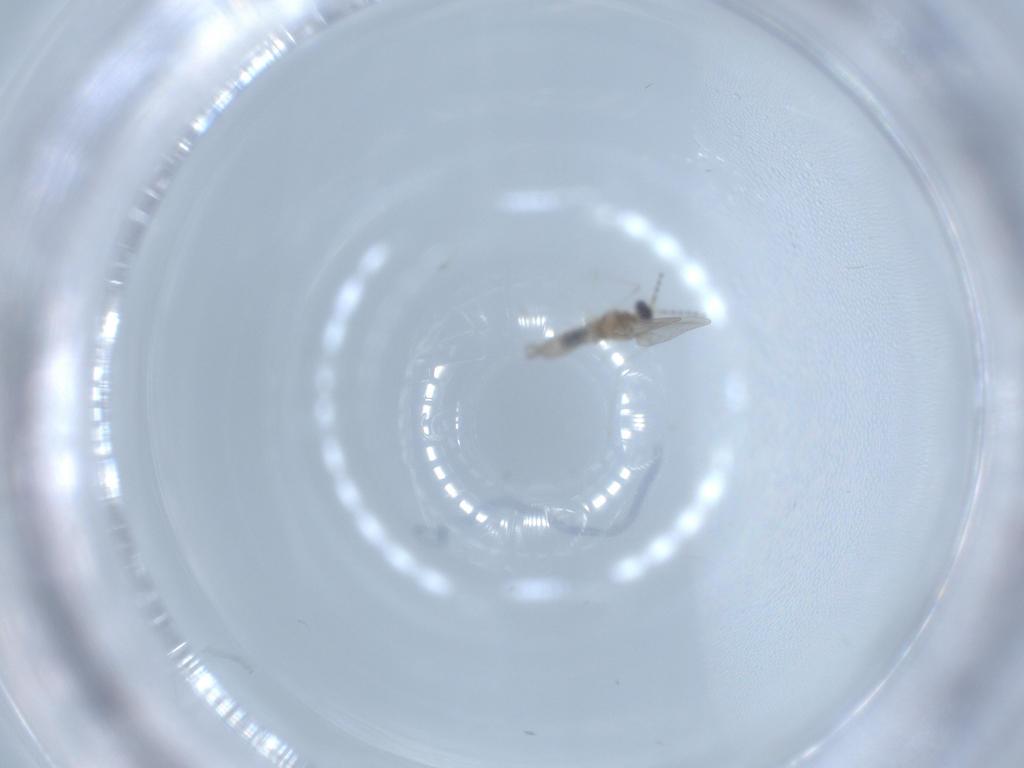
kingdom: Animalia
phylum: Arthropoda
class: Insecta
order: Diptera
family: Cecidomyiidae
